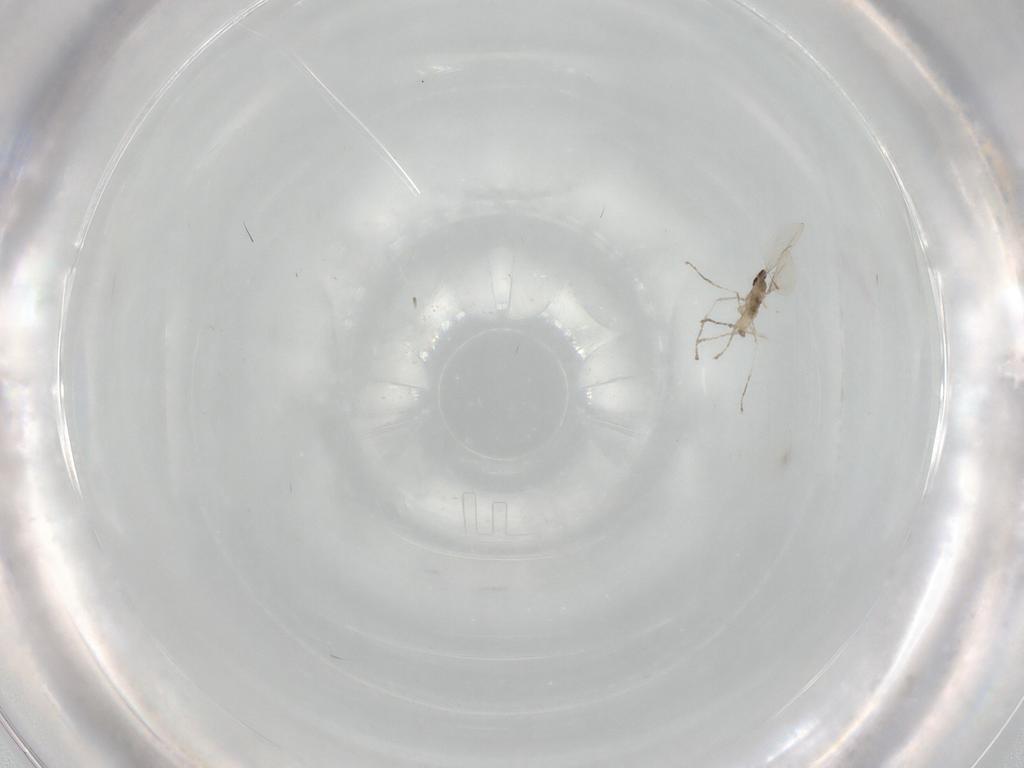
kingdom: Animalia
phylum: Arthropoda
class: Insecta
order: Diptera
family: Cecidomyiidae
